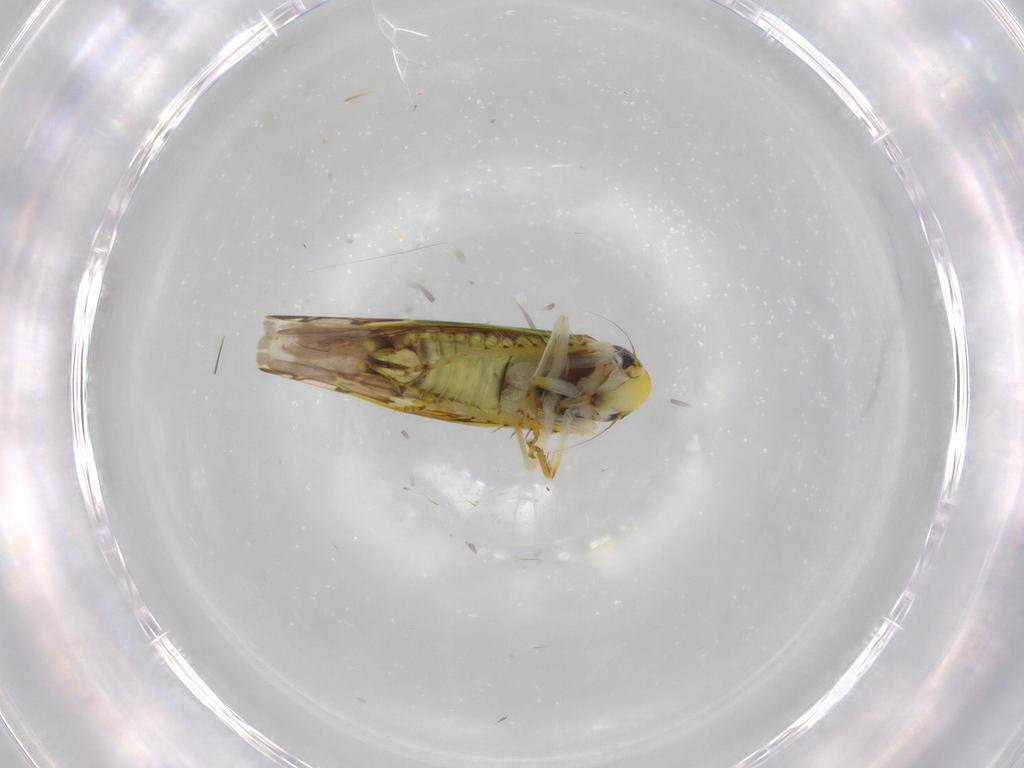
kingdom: Animalia
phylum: Arthropoda
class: Insecta
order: Hemiptera
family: Cicadellidae
